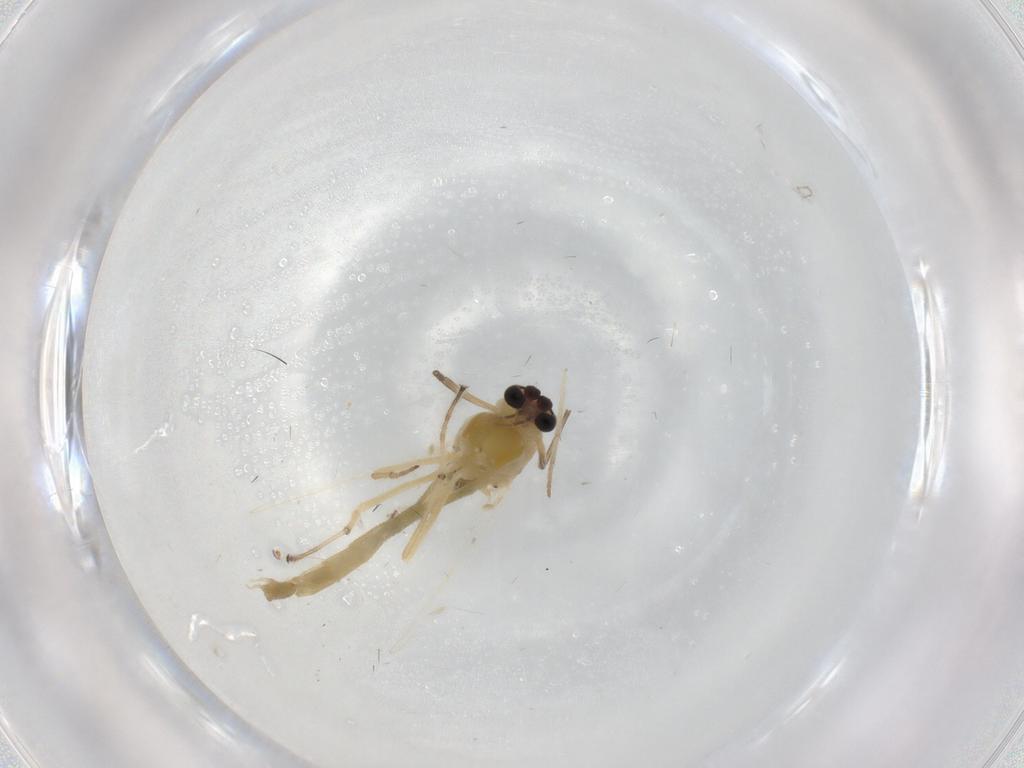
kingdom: Animalia
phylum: Arthropoda
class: Insecta
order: Diptera
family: Chironomidae
